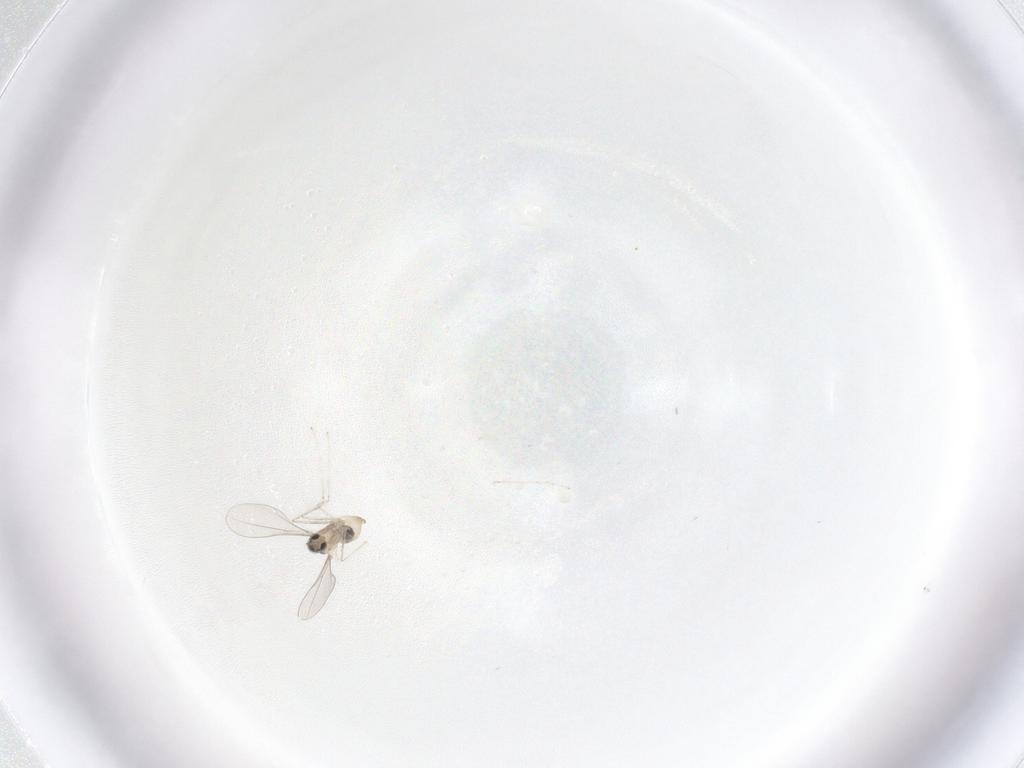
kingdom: Animalia
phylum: Arthropoda
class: Insecta
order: Diptera
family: Cecidomyiidae
